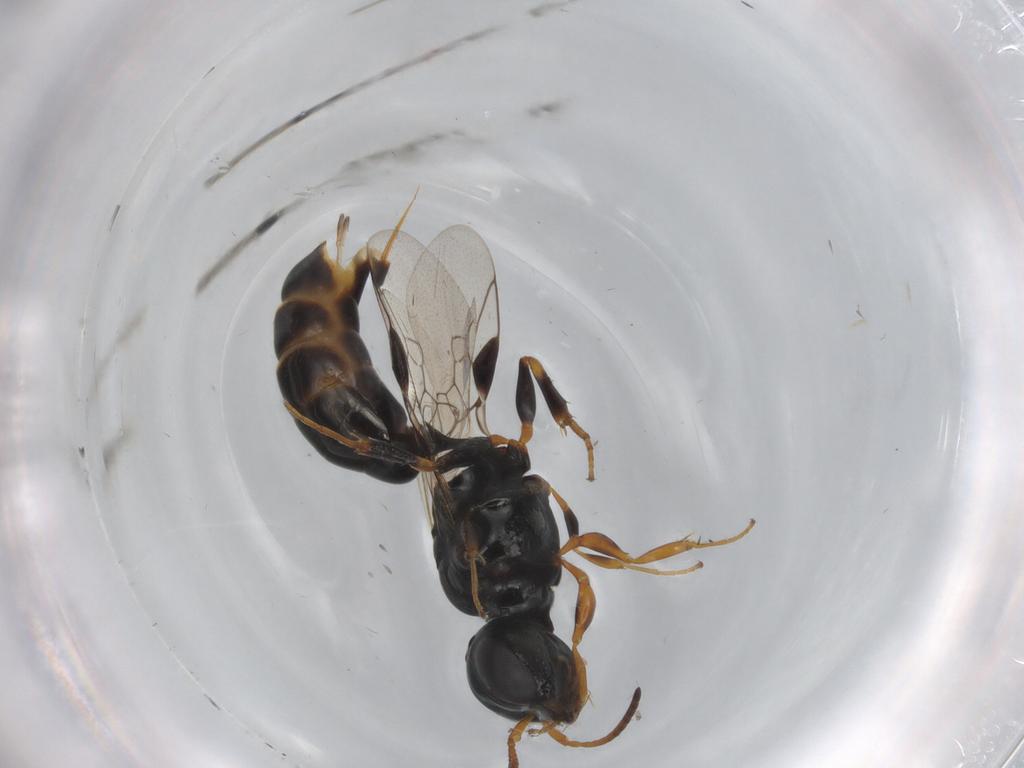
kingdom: Animalia
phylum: Arthropoda
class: Insecta
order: Hymenoptera
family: Pemphredonidae
